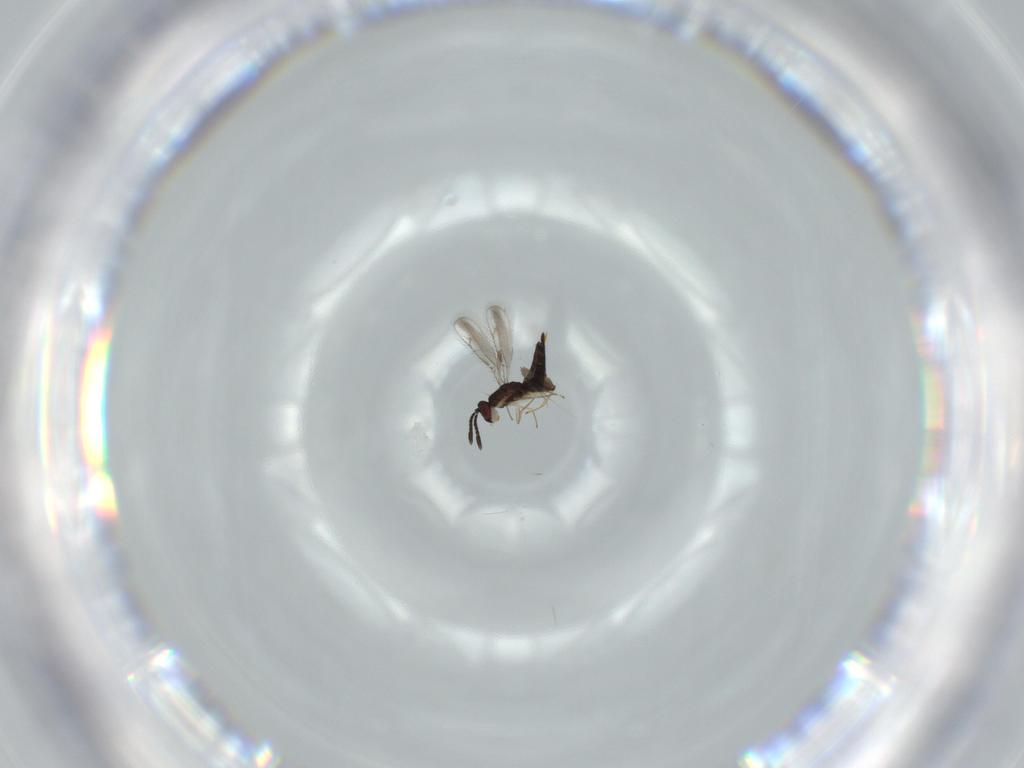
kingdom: Animalia
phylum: Arthropoda
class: Insecta
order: Hymenoptera
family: Pteromalidae
